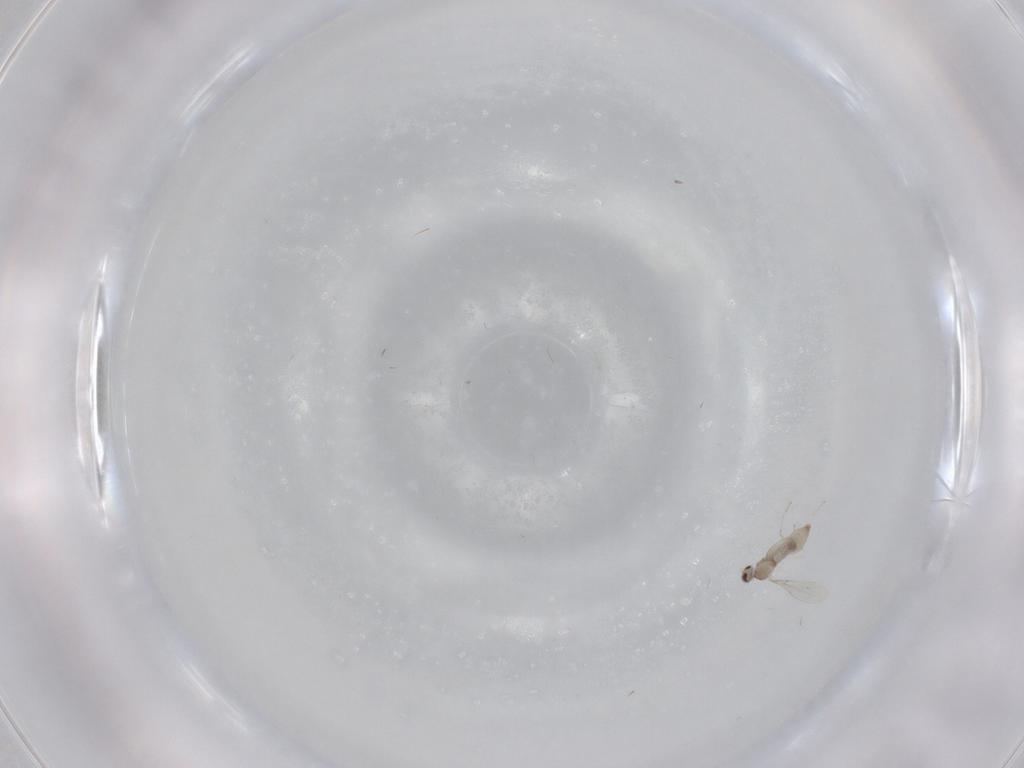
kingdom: Animalia
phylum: Arthropoda
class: Insecta
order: Diptera
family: Cecidomyiidae
